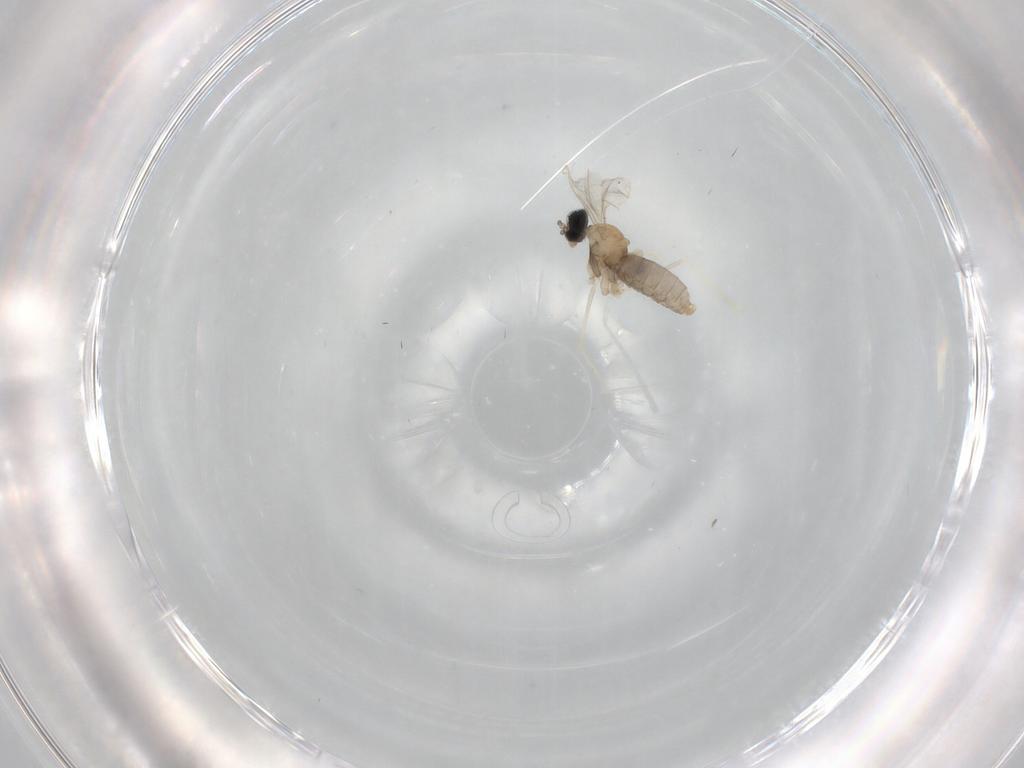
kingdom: Animalia
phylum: Arthropoda
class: Insecta
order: Diptera
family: Cecidomyiidae
